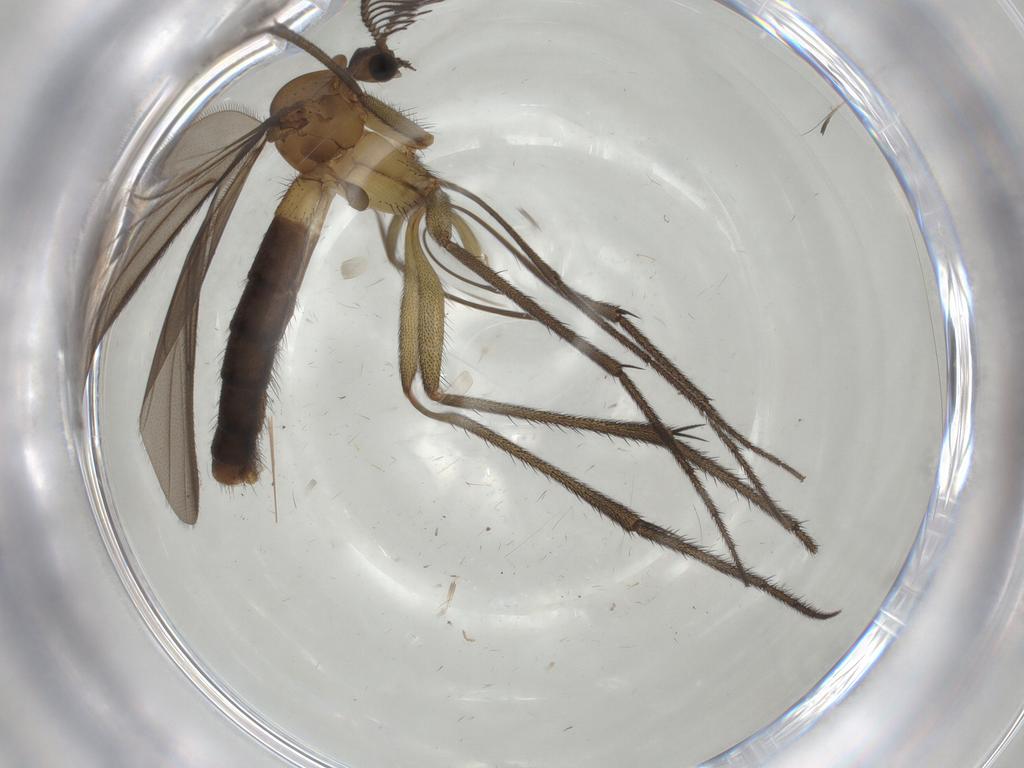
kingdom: Animalia
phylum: Arthropoda
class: Insecta
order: Diptera
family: Ditomyiidae
